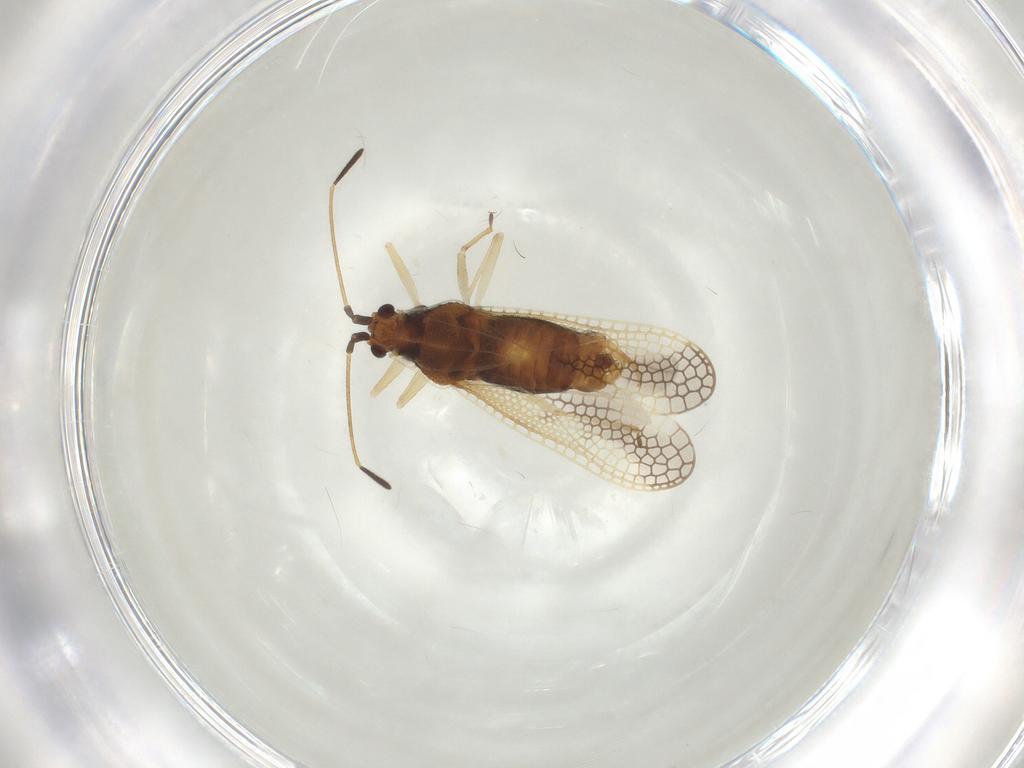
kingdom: Animalia
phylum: Arthropoda
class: Insecta
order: Hemiptera
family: Tingidae
